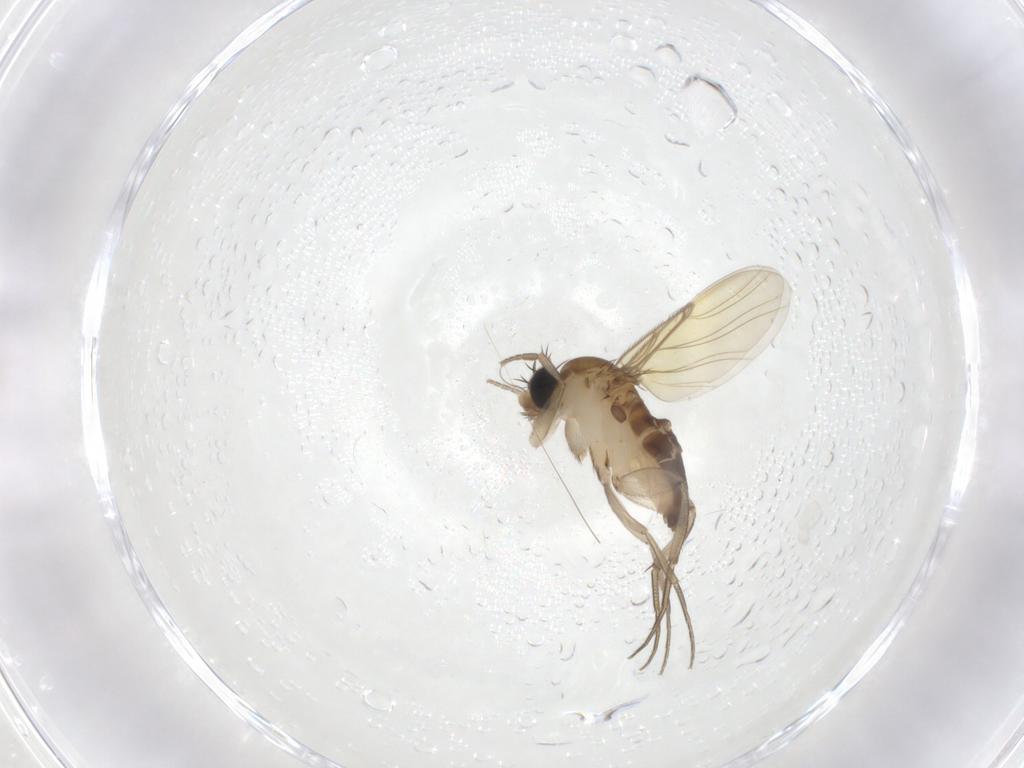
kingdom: Animalia
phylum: Arthropoda
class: Insecta
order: Diptera
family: Phoridae
